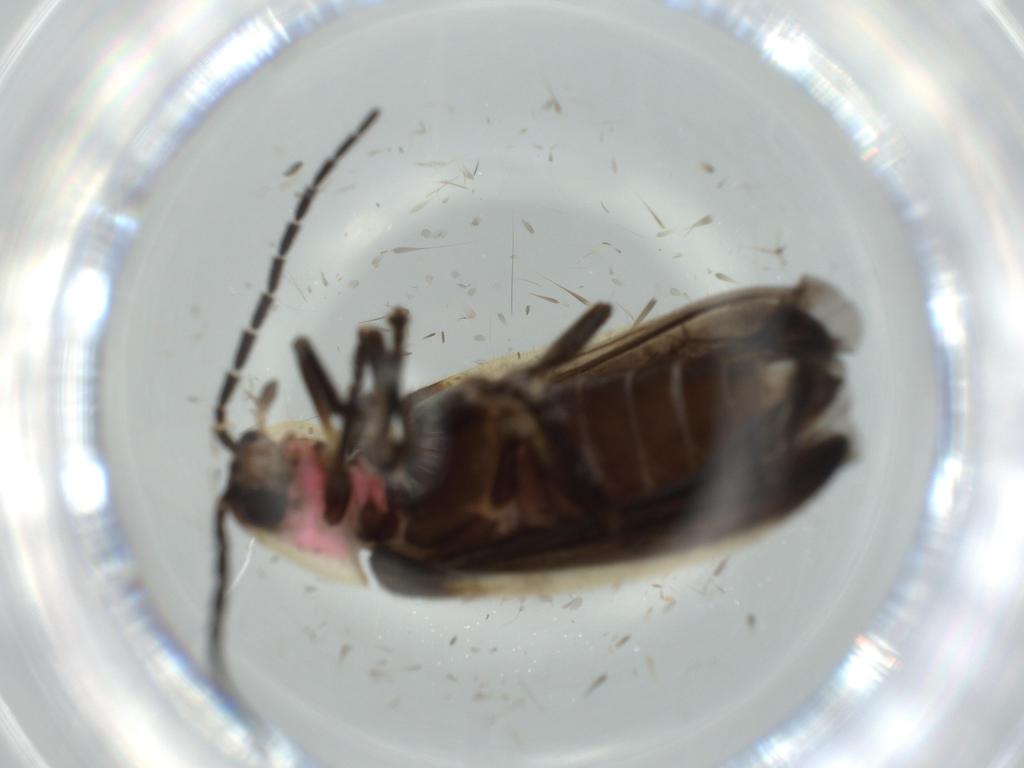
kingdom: Animalia
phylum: Arthropoda
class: Insecta
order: Coleoptera
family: Lampyridae
